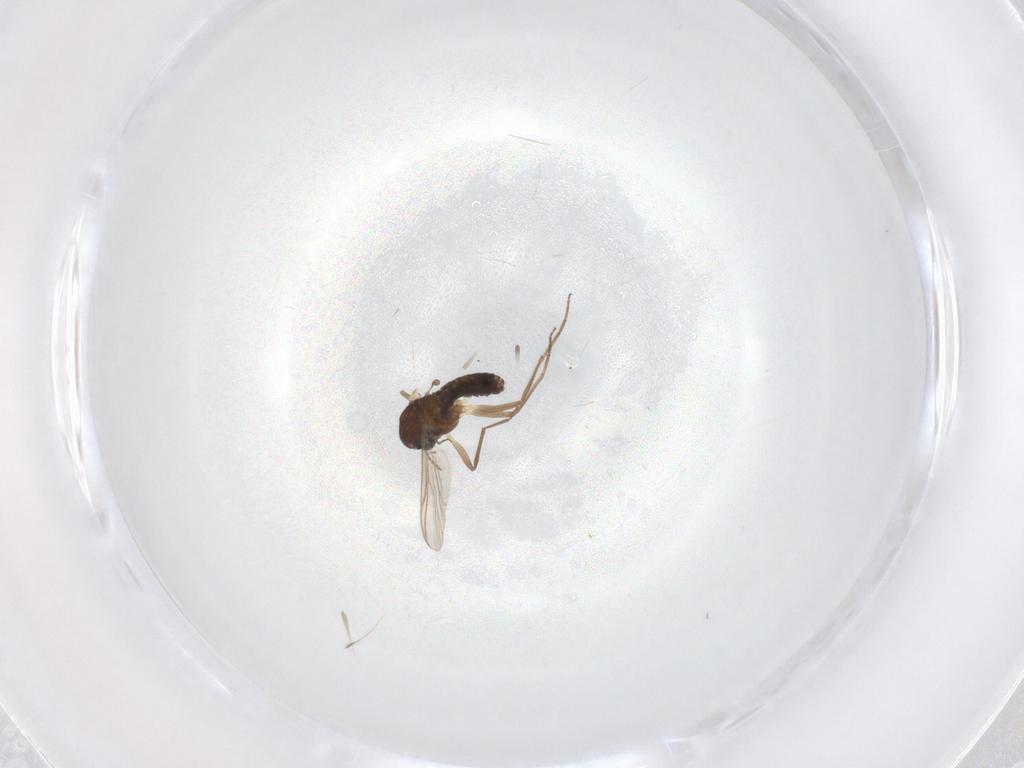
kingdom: Animalia
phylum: Arthropoda
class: Insecta
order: Diptera
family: Chironomidae
